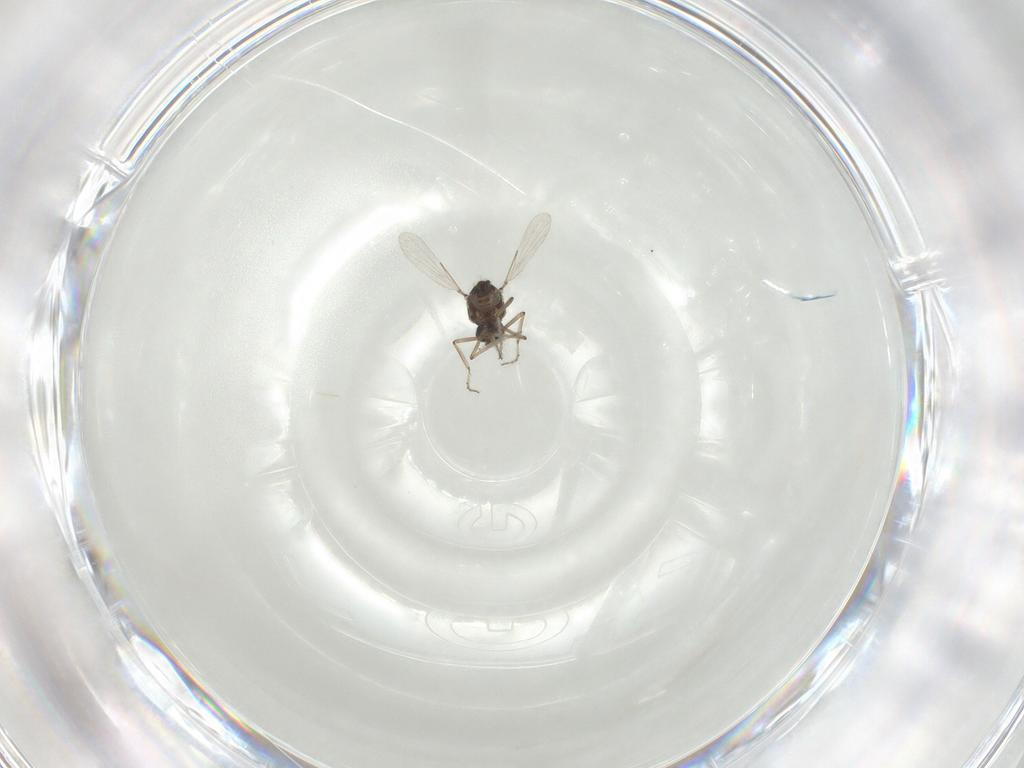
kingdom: Animalia
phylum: Arthropoda
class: Insecta
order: Diptera
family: Ceratopogonidae
